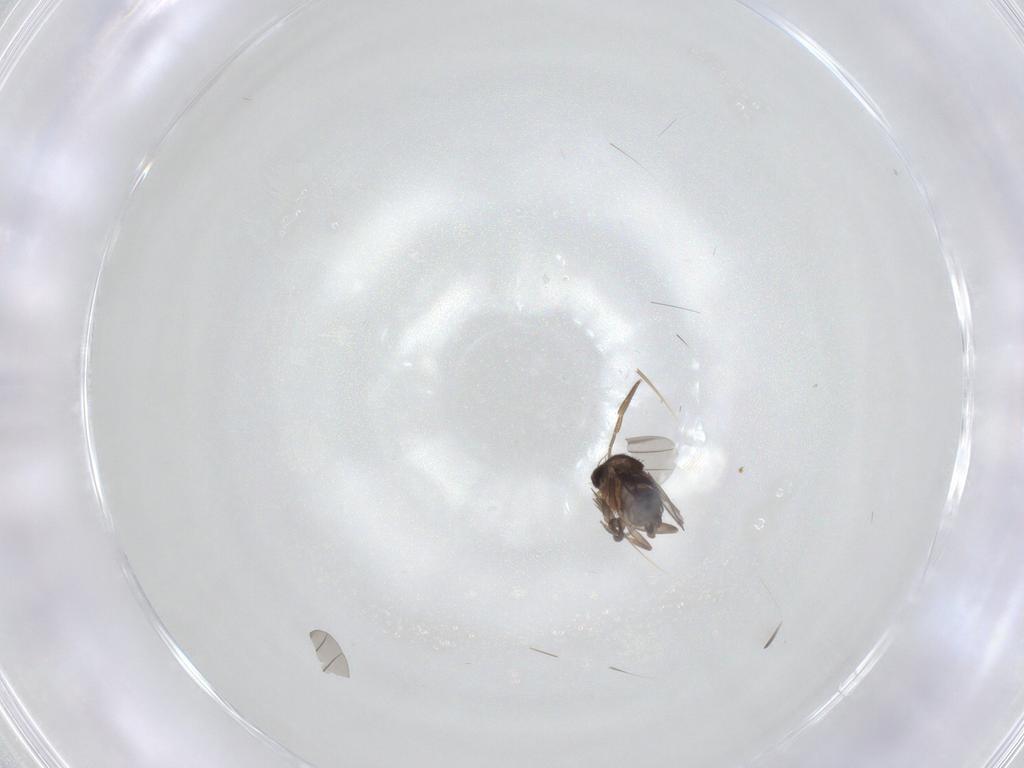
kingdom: Animalia
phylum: Arthropoda
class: Insecta
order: Diptera
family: Phoridae
